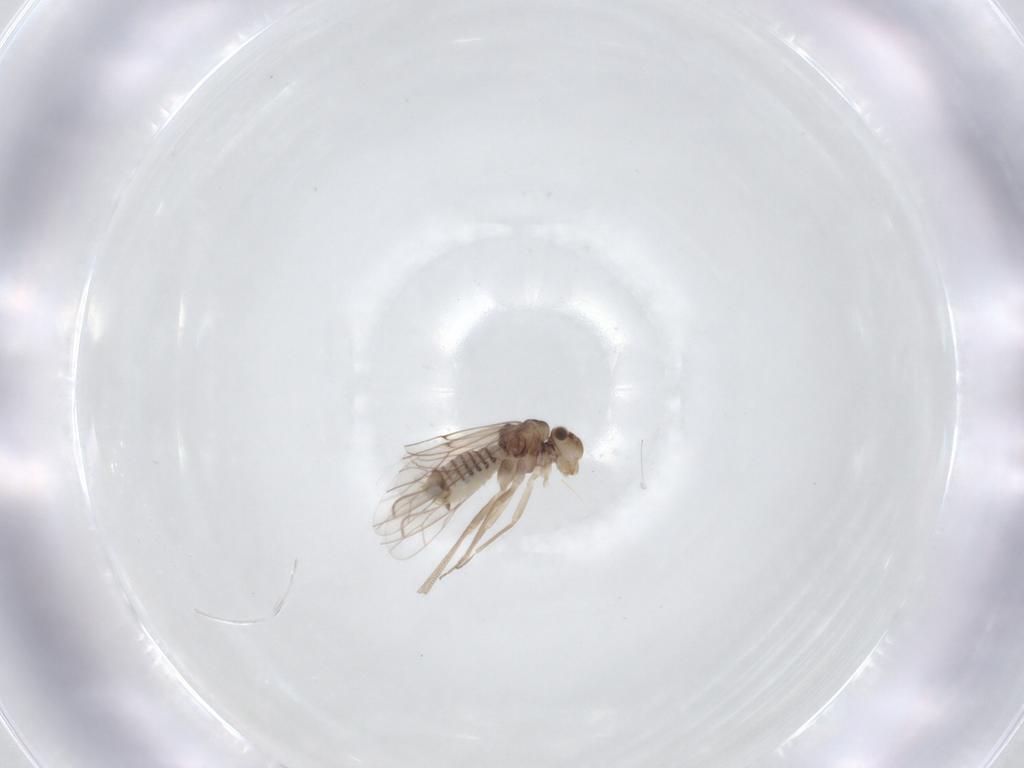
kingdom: Animalia
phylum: Arthropoda
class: Insecta
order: Psocodea
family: Lachesillidae
